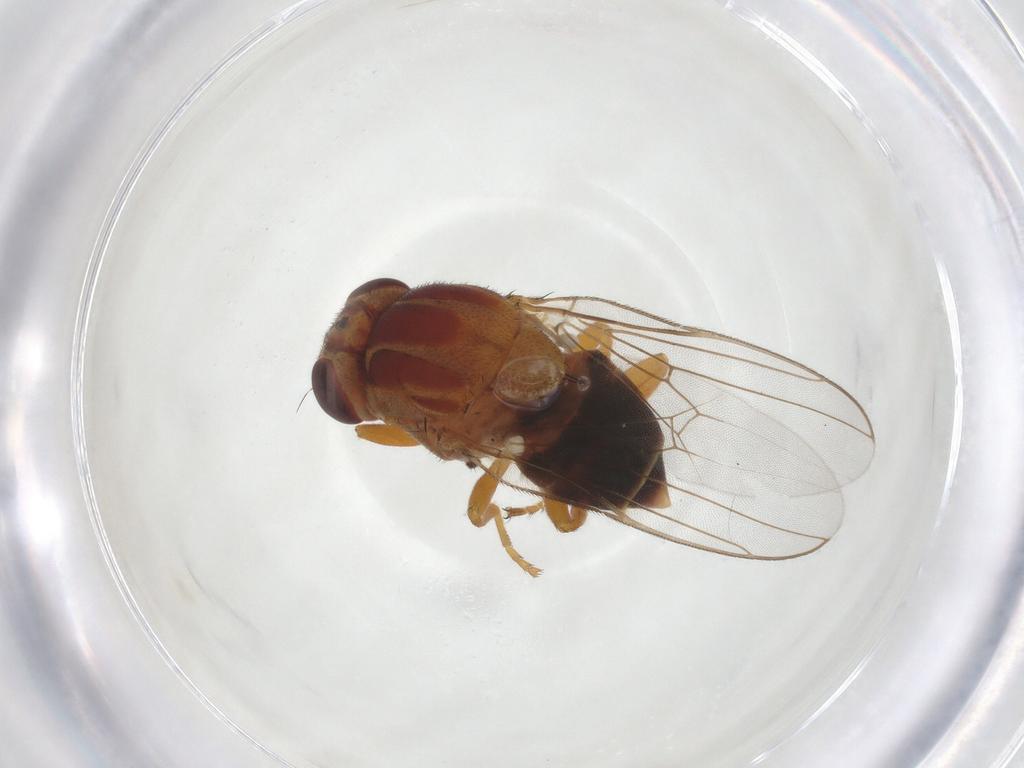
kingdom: Animalia
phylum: Arthropoda
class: Insecta
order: Diptera
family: Chloropidae
